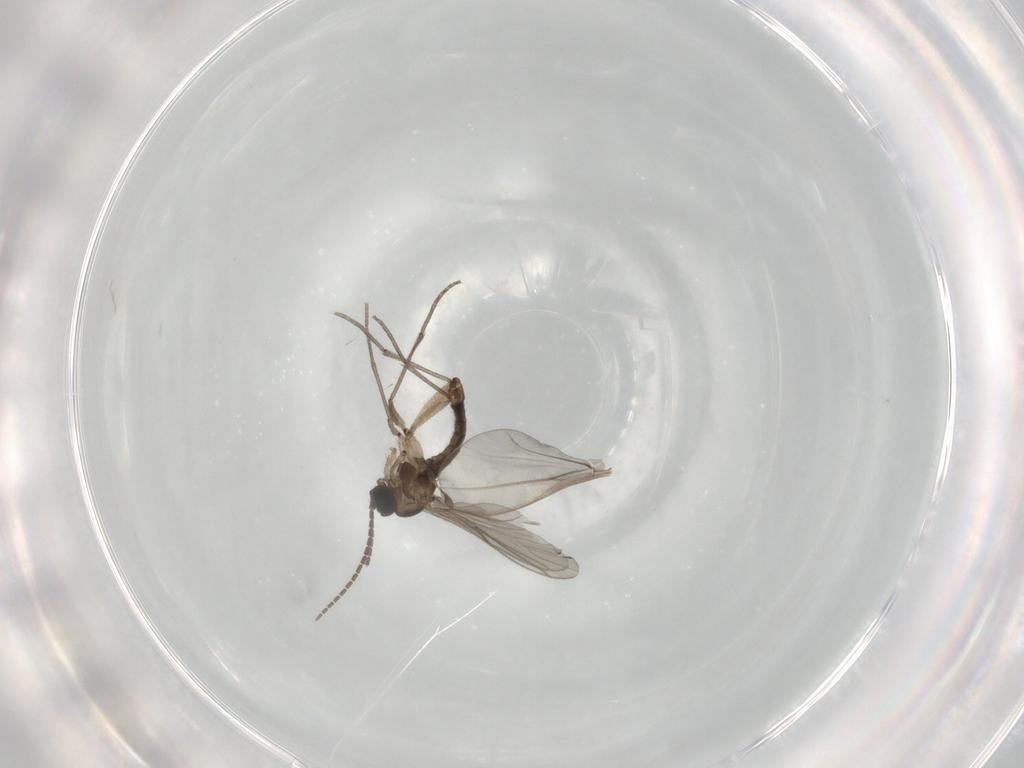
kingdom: Animalia
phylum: Arthropoda
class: Insecta
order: Diptera
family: Sciaridae
